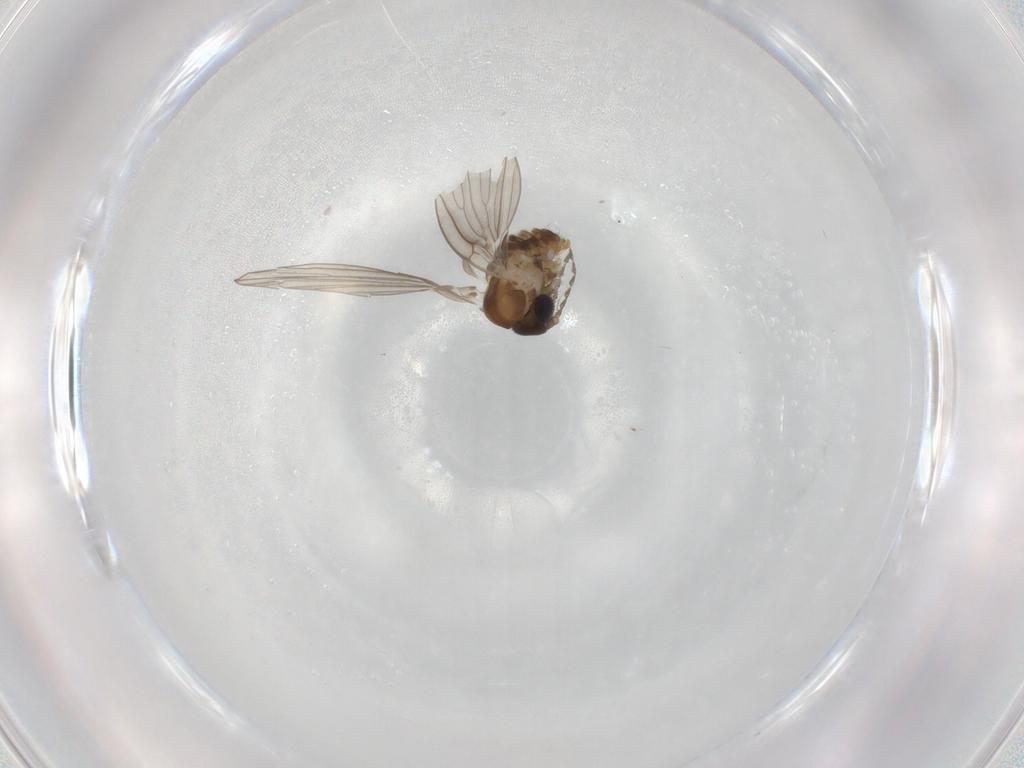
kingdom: Animalia
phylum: Arthropoda
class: Insecta
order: Diptera
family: Psychodidae
